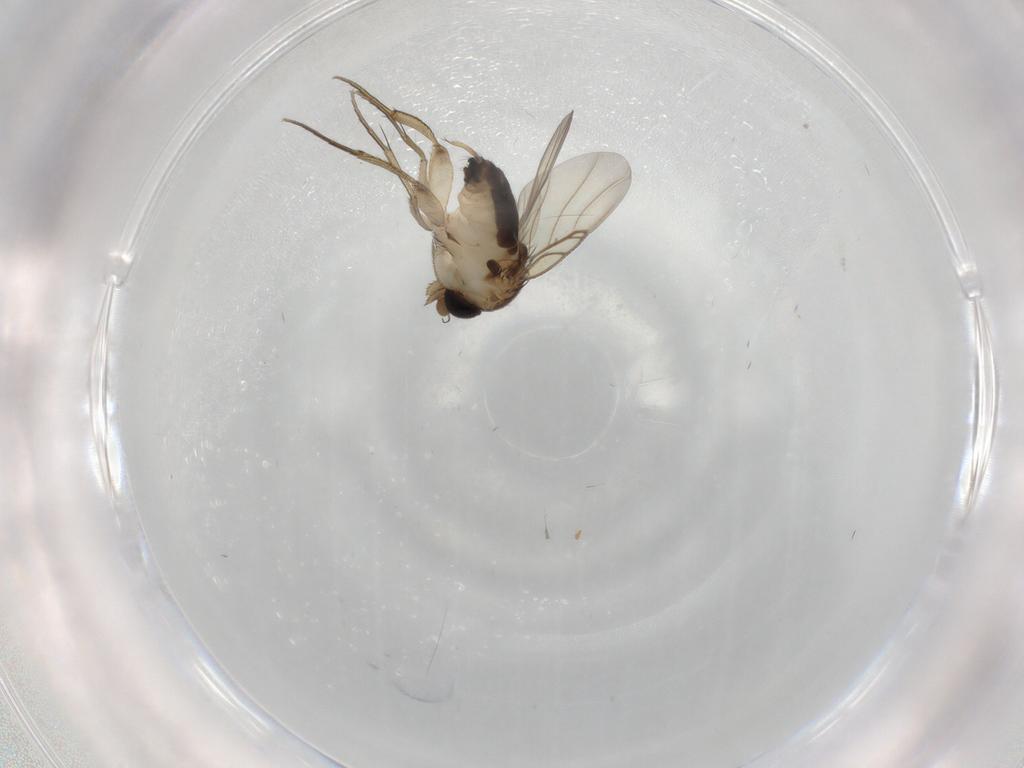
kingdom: Animalia
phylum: Arthropoda
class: Insecta
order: Diptera
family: Phoridae
